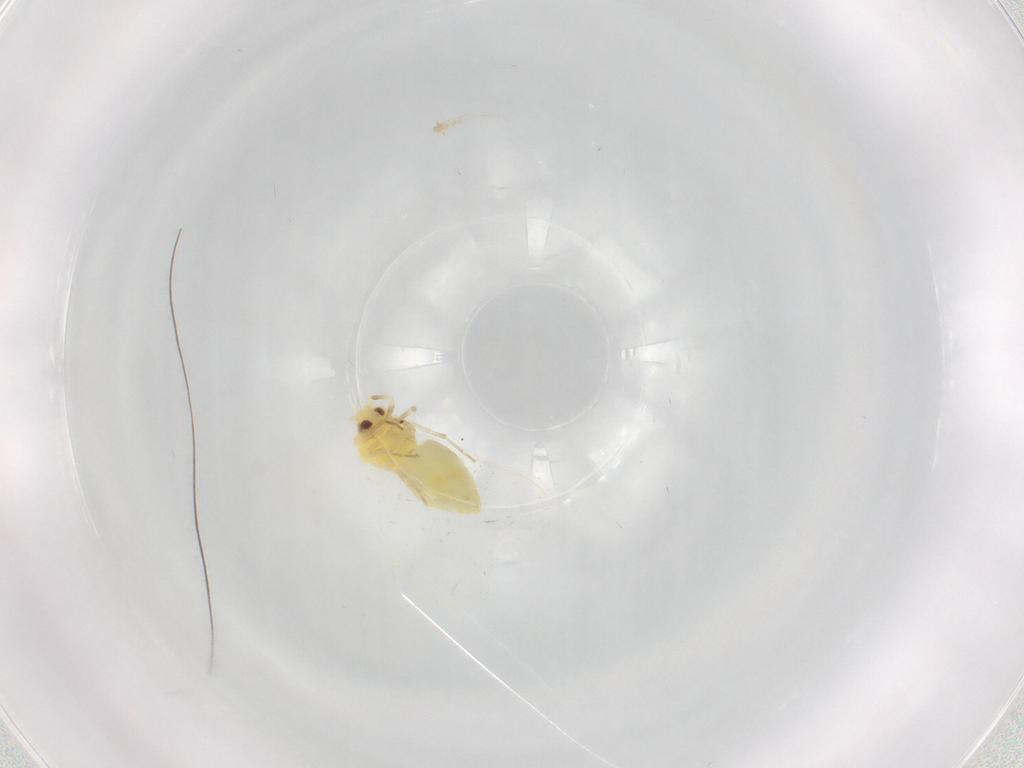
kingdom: Animalia
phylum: Arthropoda
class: Insecta
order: Hemiptera
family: Aleyrodidae
